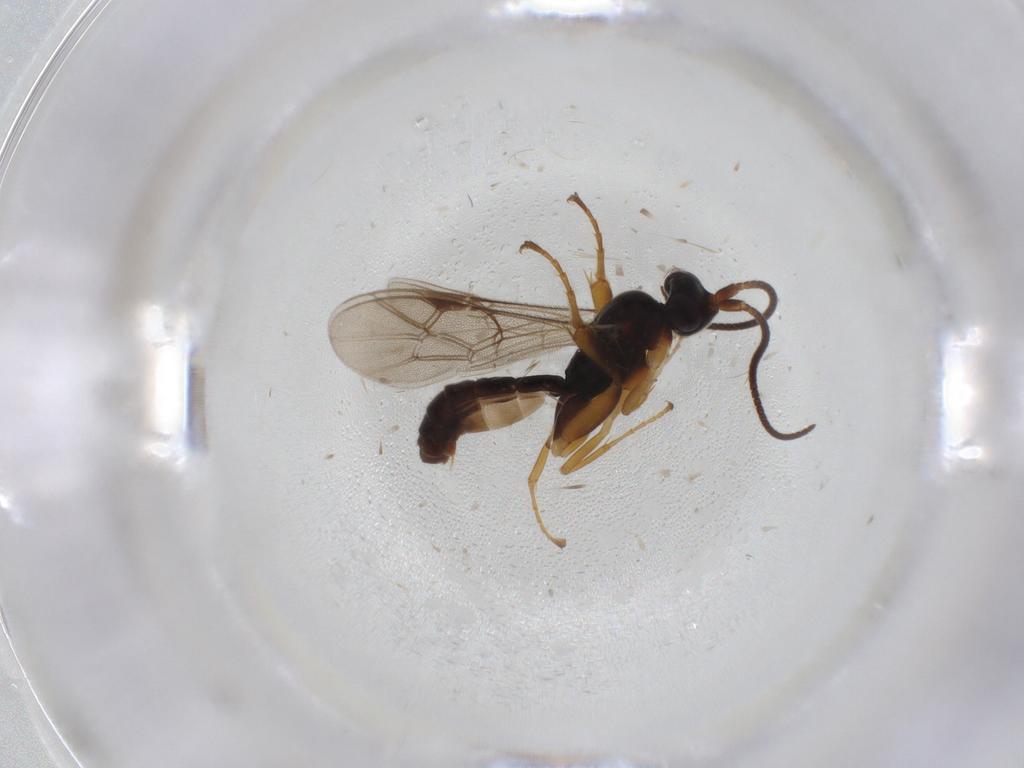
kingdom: Animalia
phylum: Arthropoda
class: Insecta
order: Hymenoptera
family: Ichneumonidae
